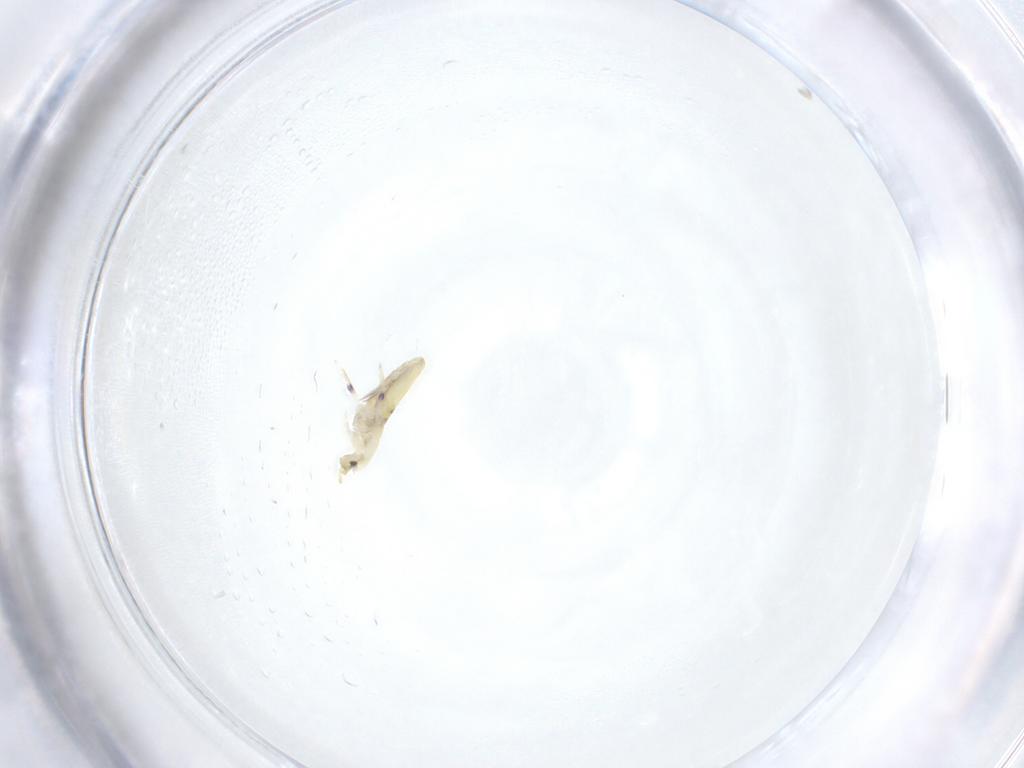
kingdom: Animalia
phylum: Arthropoda
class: Collembola
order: Entomobryomorpha
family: Entomobryidae
